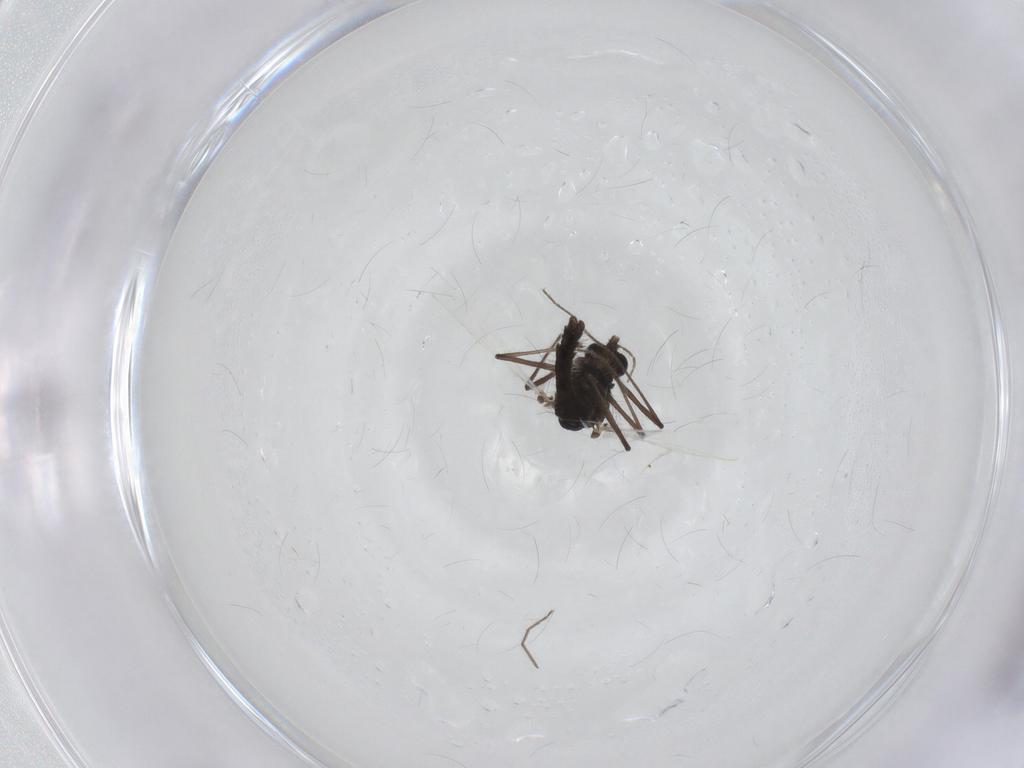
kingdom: Animalia
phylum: Arthropoda
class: Insecta
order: Diptera
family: Chironomidae
